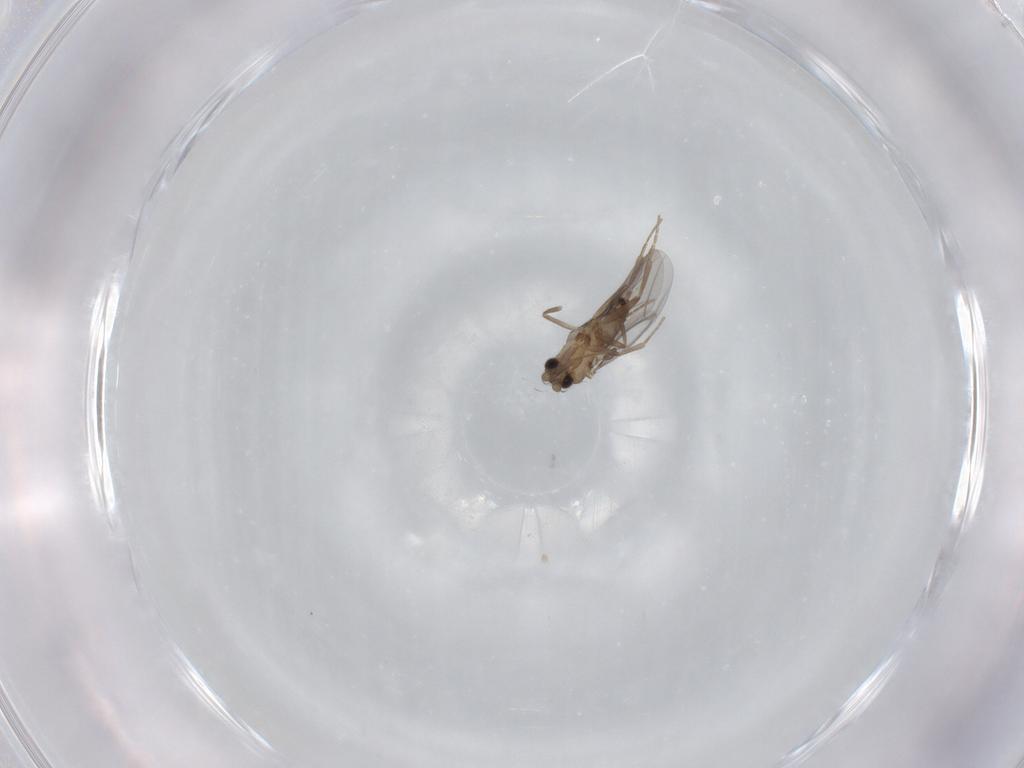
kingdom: Animalia
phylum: Arthropoda
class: Insecta
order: Diptera
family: Cecidomyiidae
